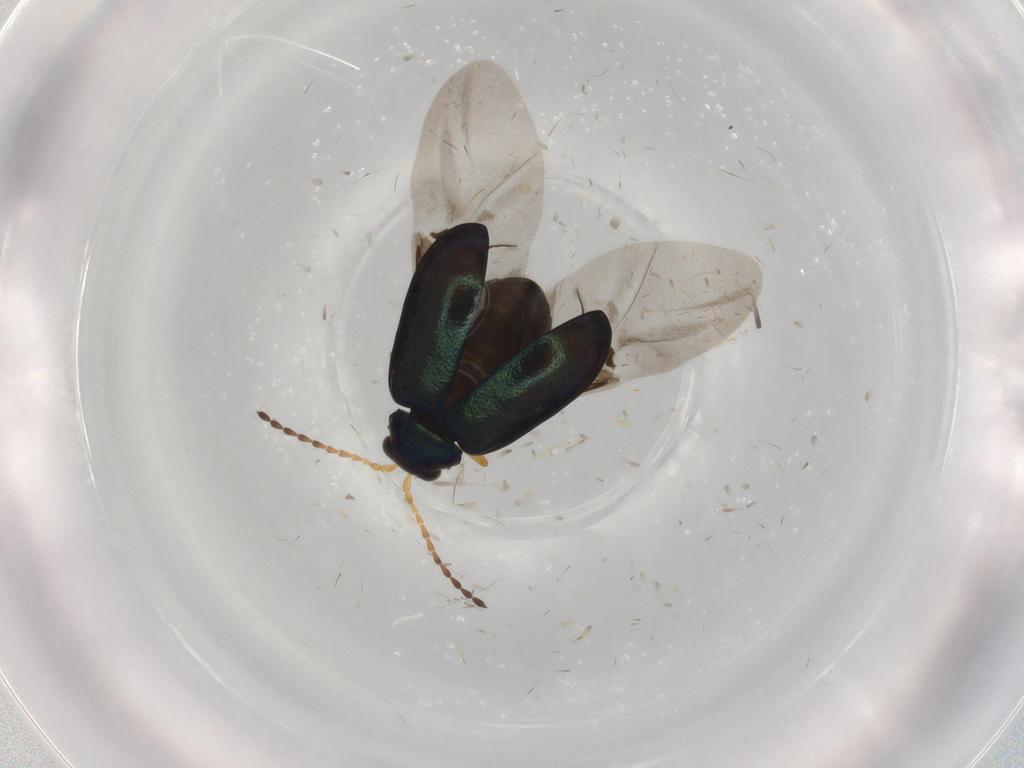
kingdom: Animalia
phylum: Arthropoda
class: Insecta
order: Coleoptera
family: Chrysomelidae
